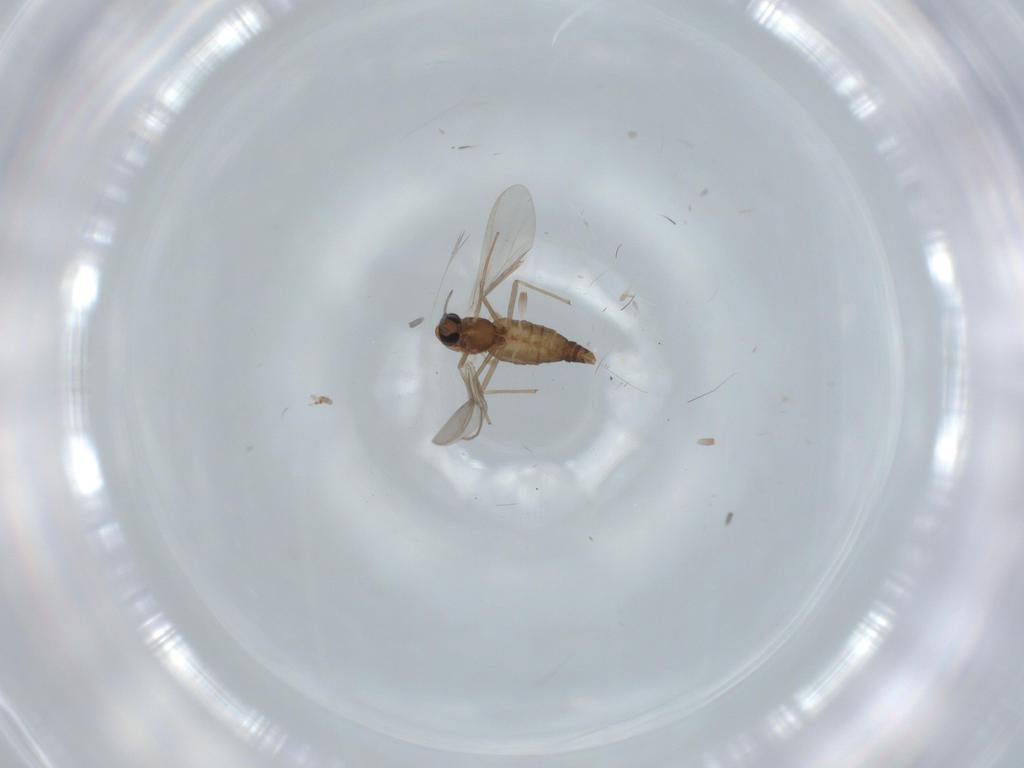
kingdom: Animalia
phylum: Arthropoda
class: Insecta
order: Diptera
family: Chironomidae
